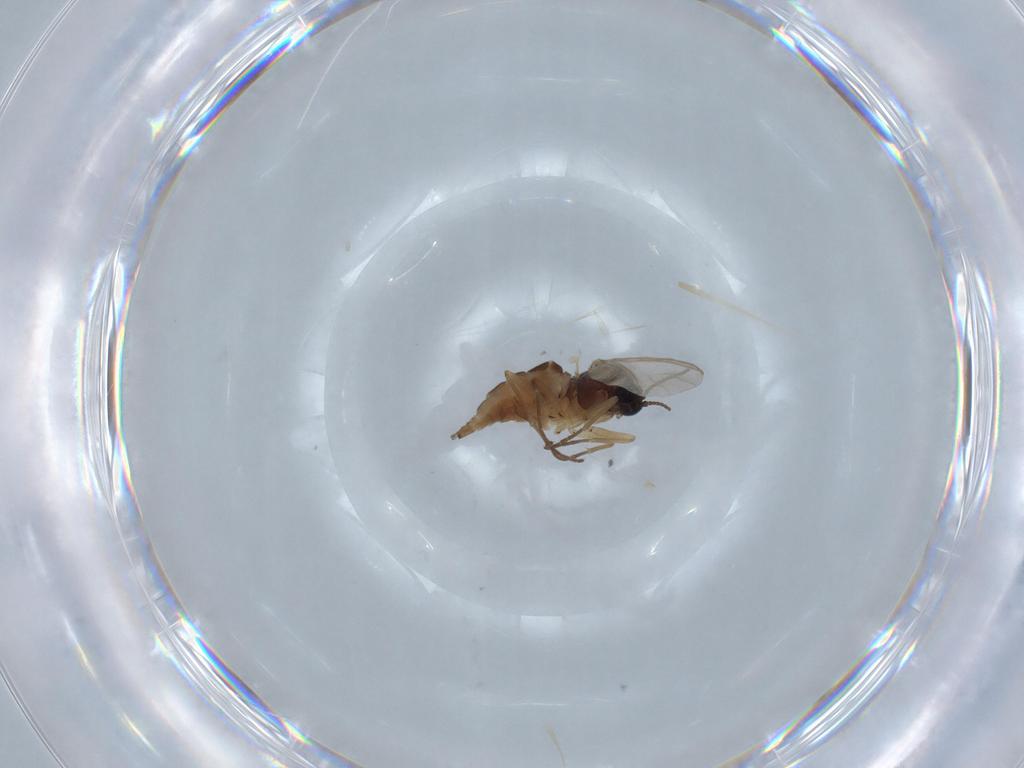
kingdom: Animalia
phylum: Arthropoda
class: Insecta
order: Diptera
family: Sciaridae
